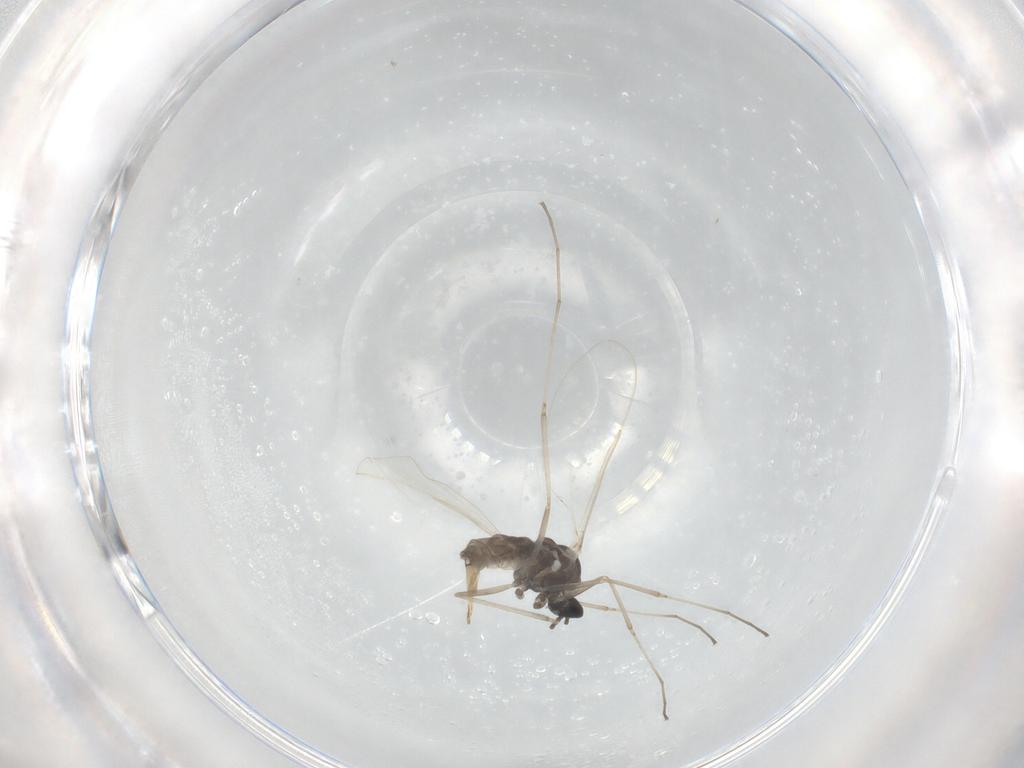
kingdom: Animalia
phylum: Arthropoda
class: Insecta
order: Diptera
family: Cecidomyiidae
